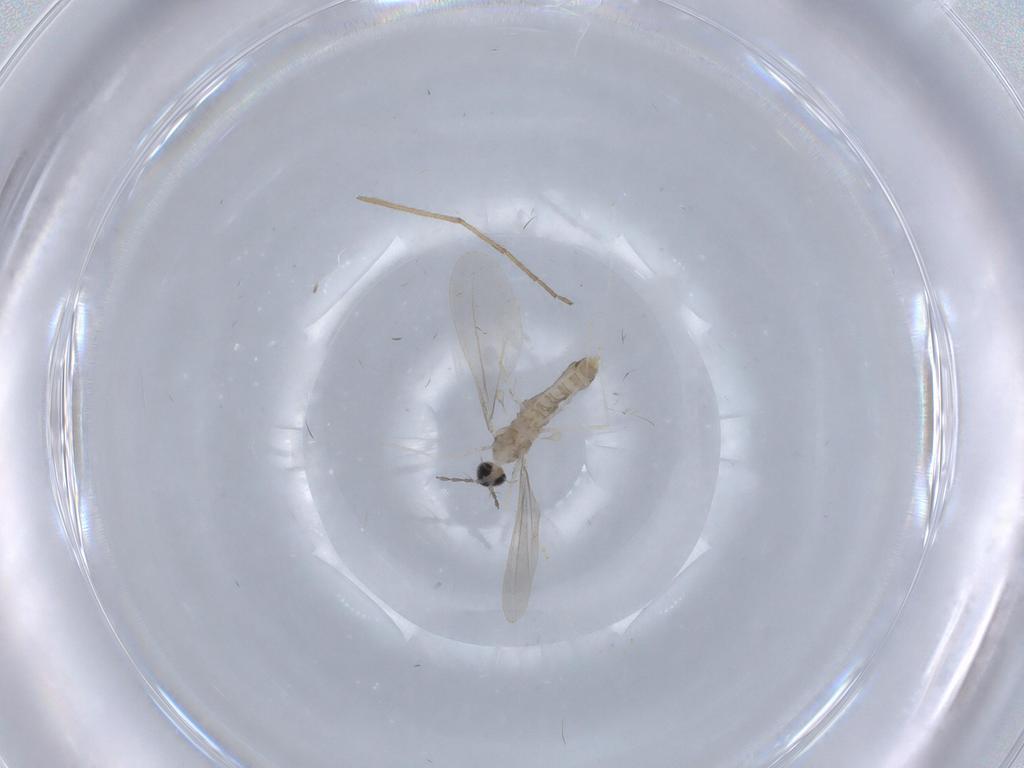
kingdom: Animalia
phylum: Arthropoda
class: Insecta
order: Diptera
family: Cecidomyiidae
